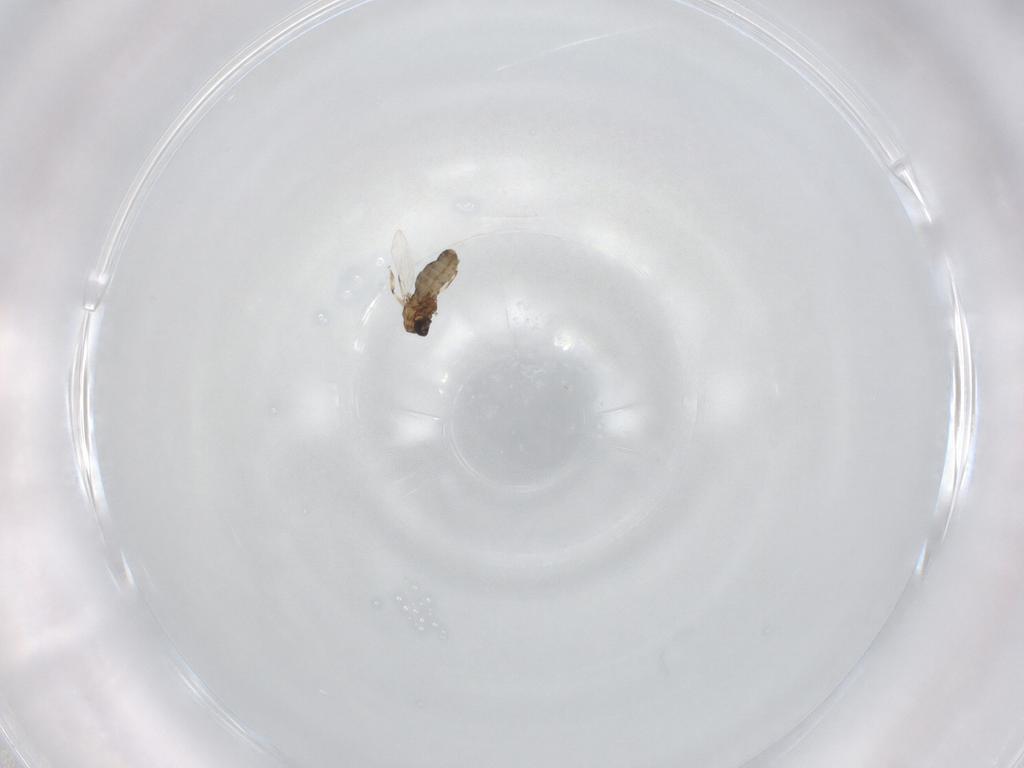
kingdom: Animalia
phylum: Arthropoda
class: Insecta
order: Diptera
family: Ceratopogonidae
